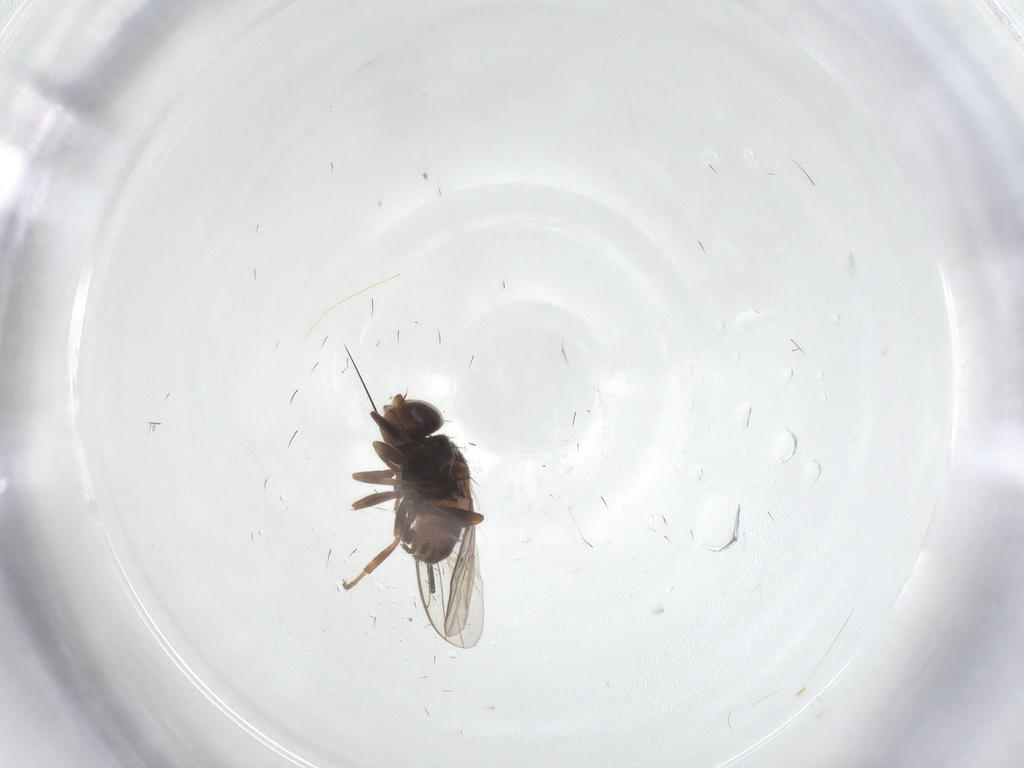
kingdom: Animalia
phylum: Arthropoda
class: Insecta
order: Diptera
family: Chloropidae
